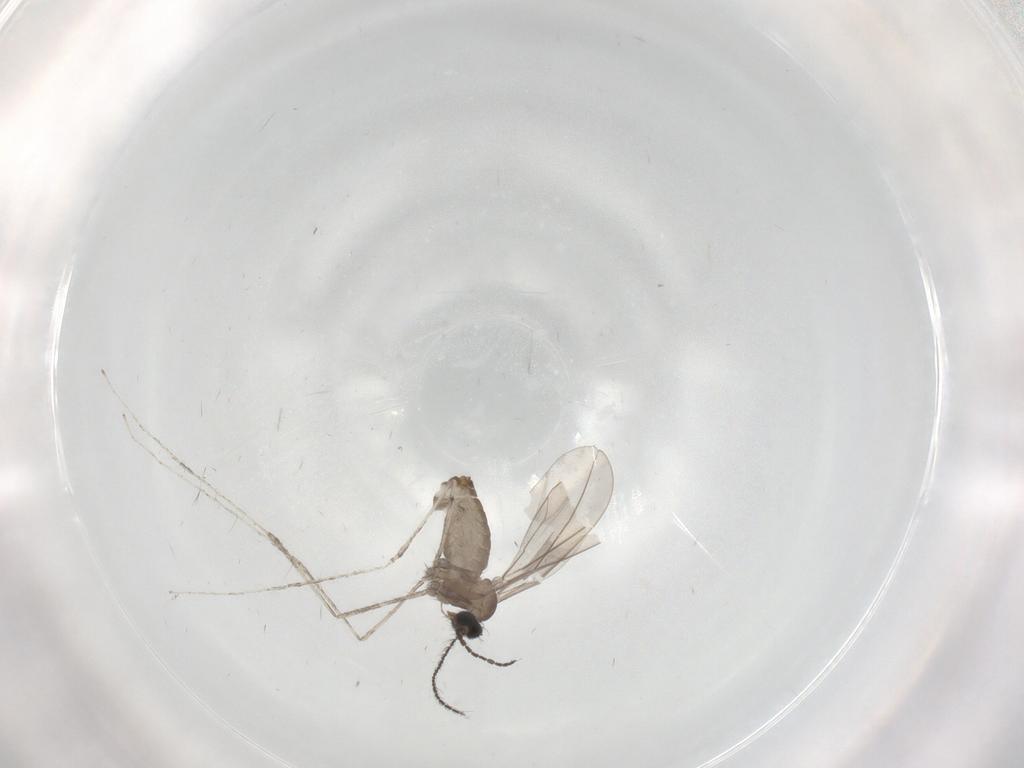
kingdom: Animalia
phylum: Arthropoda
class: Insecta
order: Diptera
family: Cecidomyiidae
